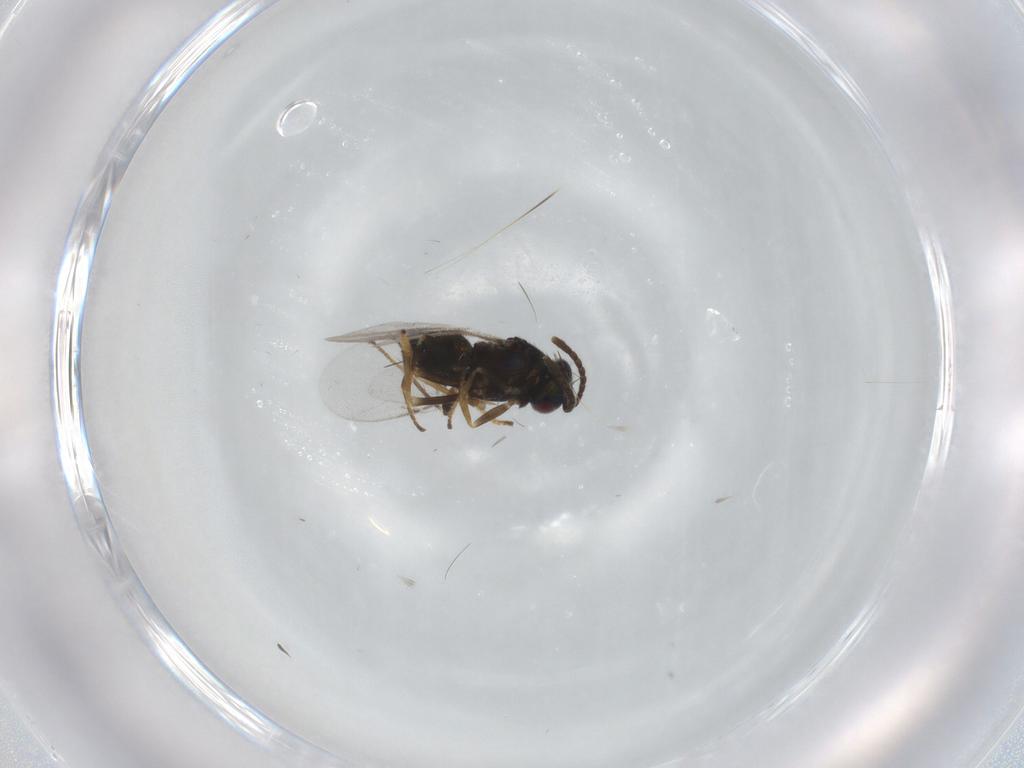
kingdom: Animalia
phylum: Arthropoda
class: Insecta
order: Hymenoptera
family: Encyrtidae
